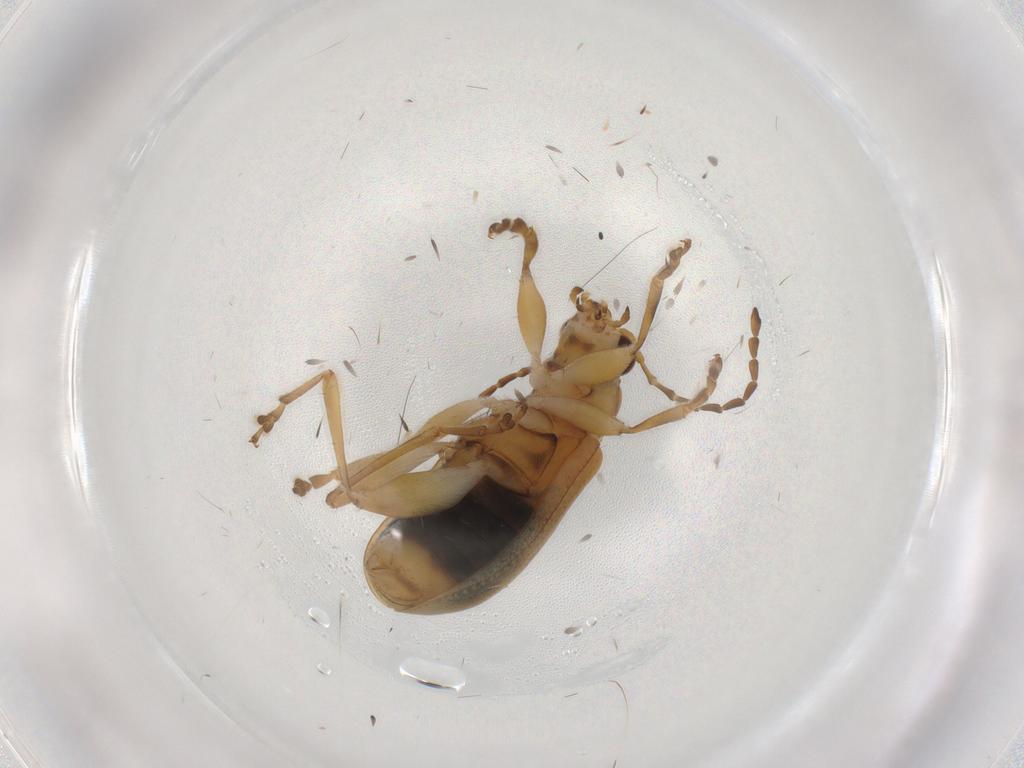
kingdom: Animalia
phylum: Arthropoda
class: Insecta
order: Coleoptera
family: Chrysomelidae
